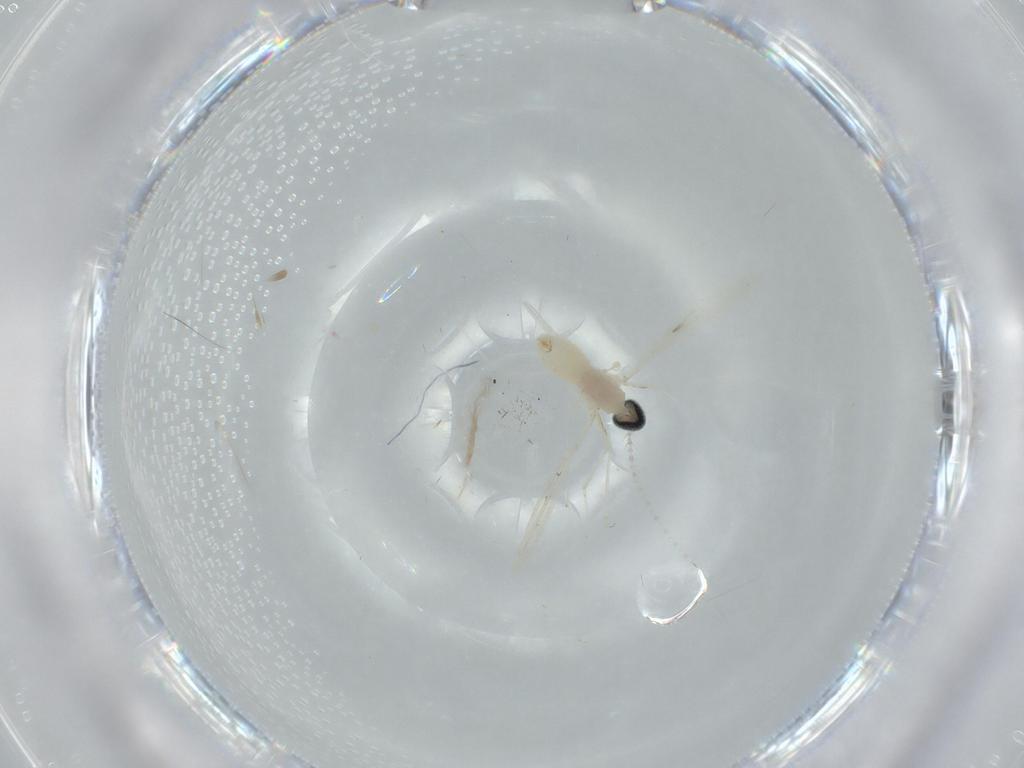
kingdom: Animalia
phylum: Arthropoda
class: Insecta
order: Diptera
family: Cecidomyiidae
